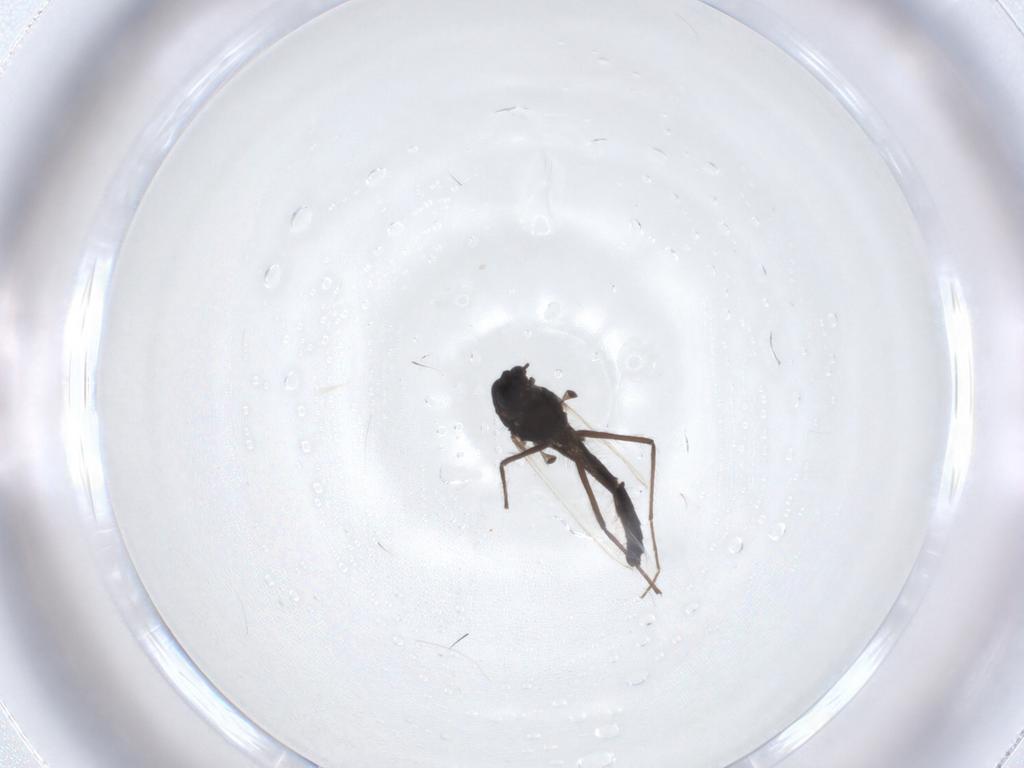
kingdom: Animalia
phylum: Arthropoda
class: Insecta
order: Diptera
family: Chironomidae
